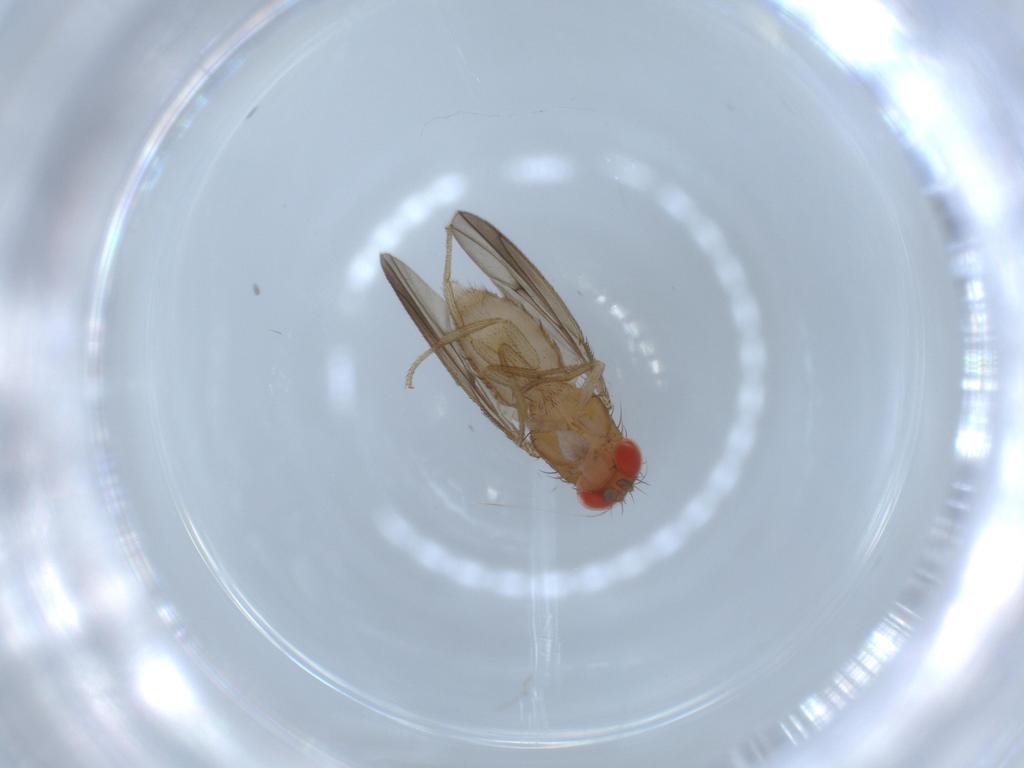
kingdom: Animalia
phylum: Arthropoda
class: Insecta
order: Diptera
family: Drosophilidae
